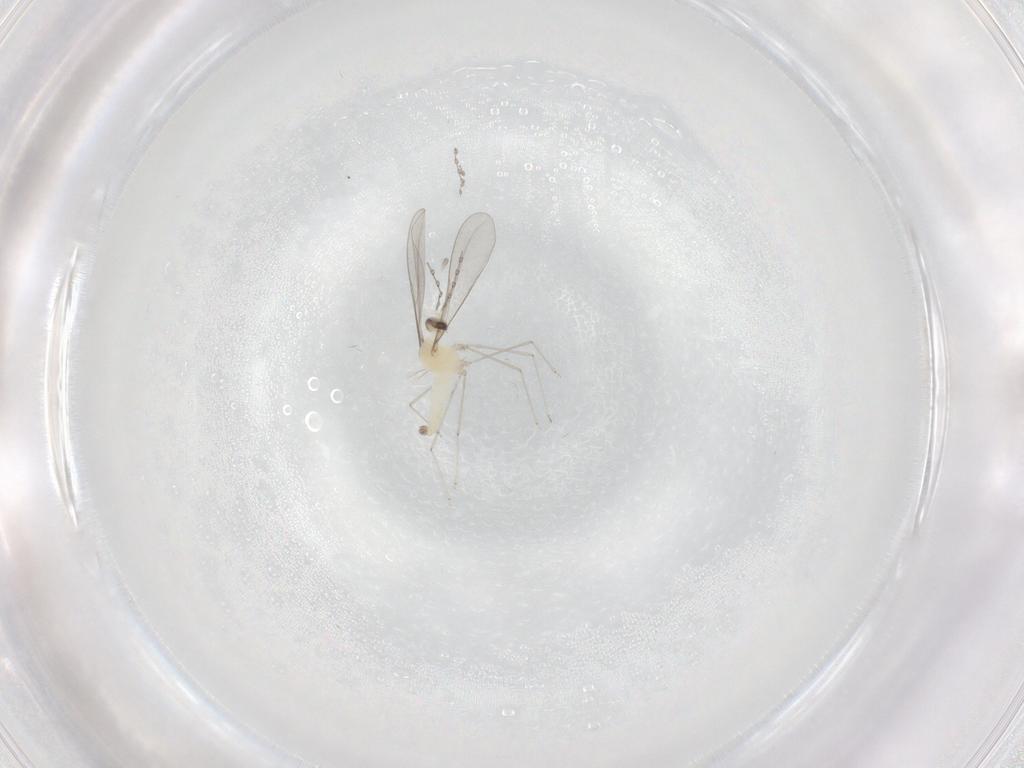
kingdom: Animalia
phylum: Arthropoda
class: Insecta
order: Diptera
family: Cecidomyiidae
